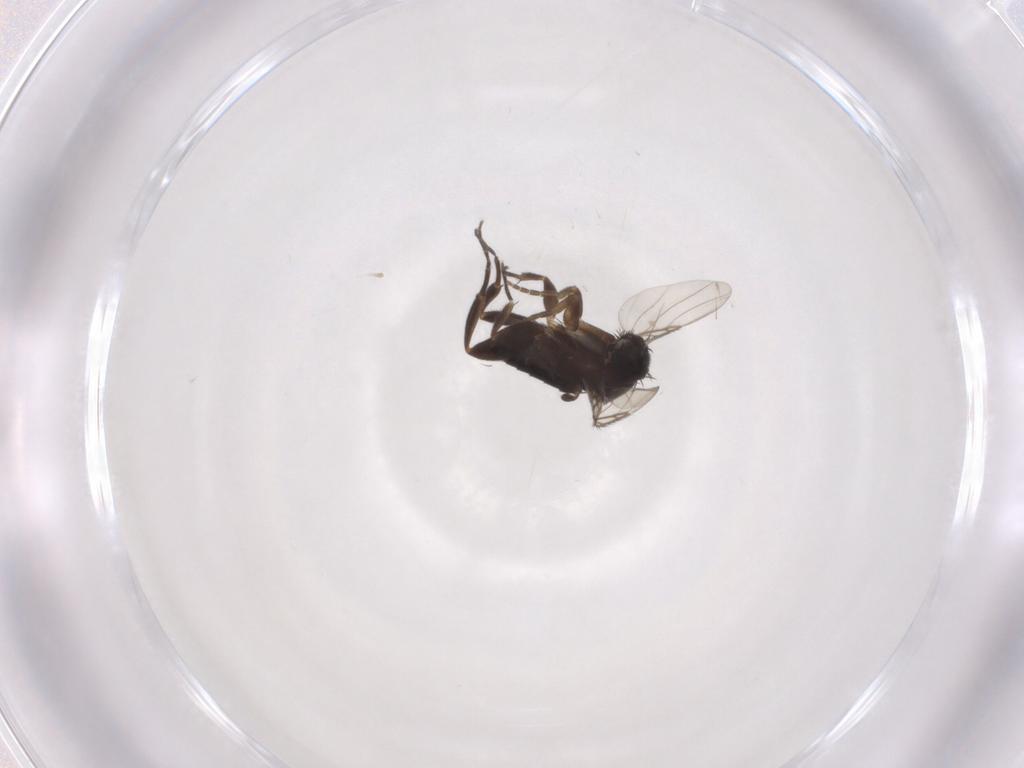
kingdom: Animalia
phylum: Arthropoda
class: Insecta
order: Diptera
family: Phoridae
